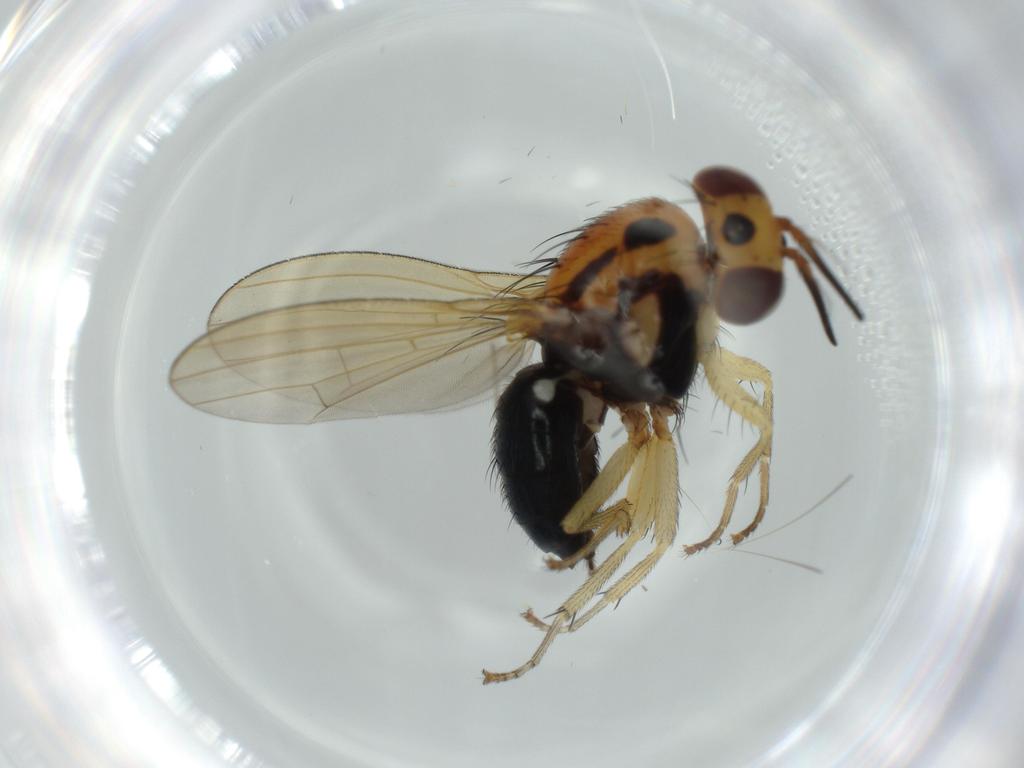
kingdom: Animalia
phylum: Arthropoda
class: Insecta
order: Diptera
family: Lauxaniidae
